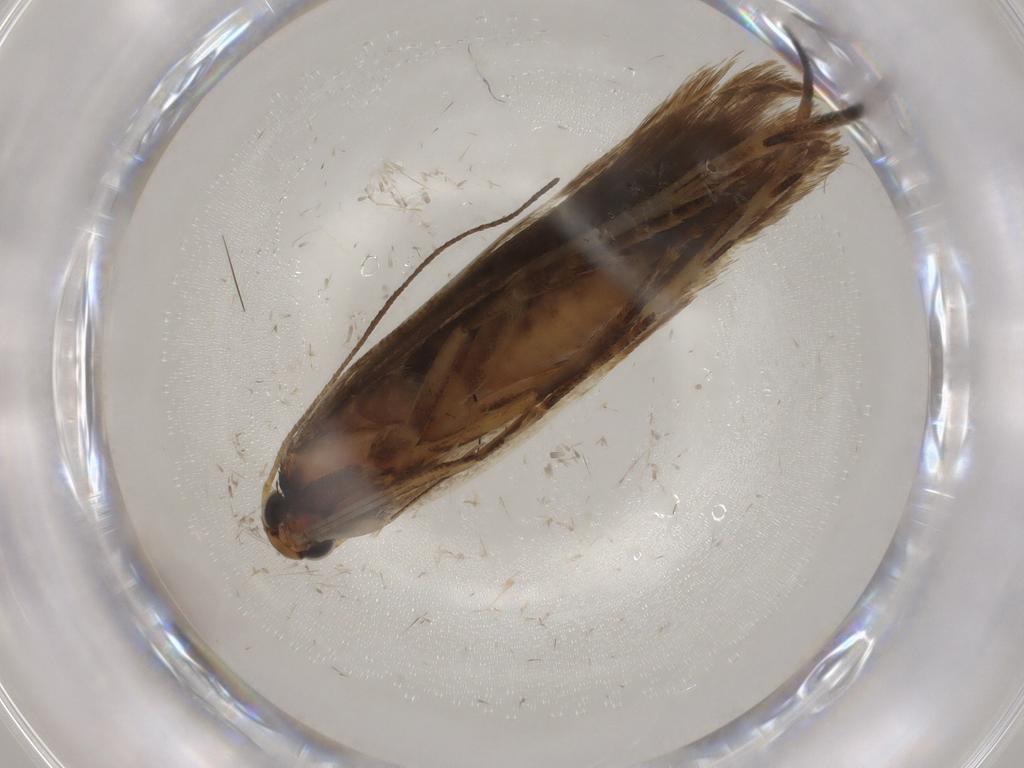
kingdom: Animalia
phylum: Arthropoda
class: Insecta
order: Lepidoptera
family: Gelechiidae
